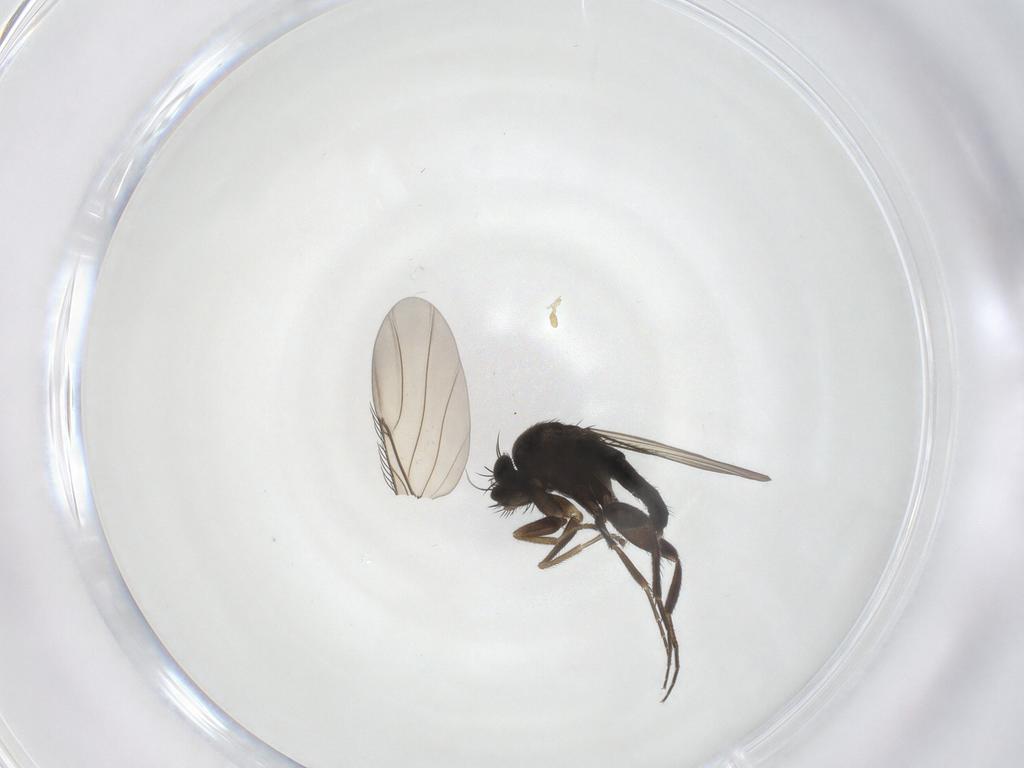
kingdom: Animalia
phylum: Arthropoda
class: Insecta
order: Diptera
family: Phoridae
